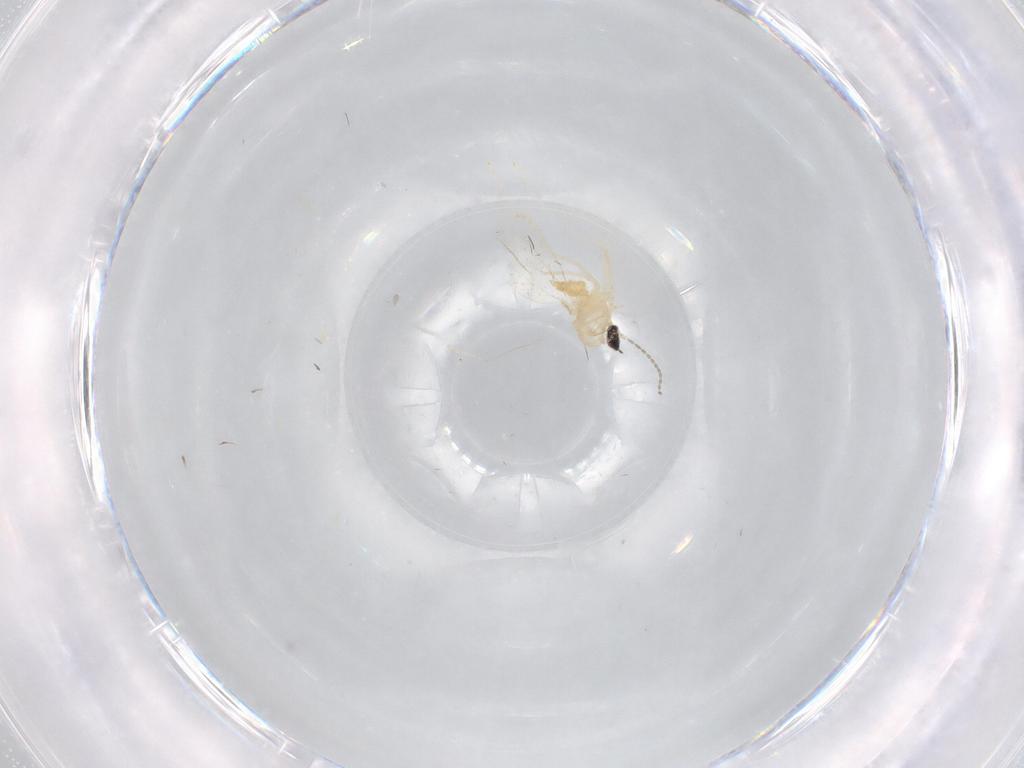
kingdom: Animalia
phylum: Arthropoda
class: Insecta
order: Diptera
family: Cecidomyiidae
